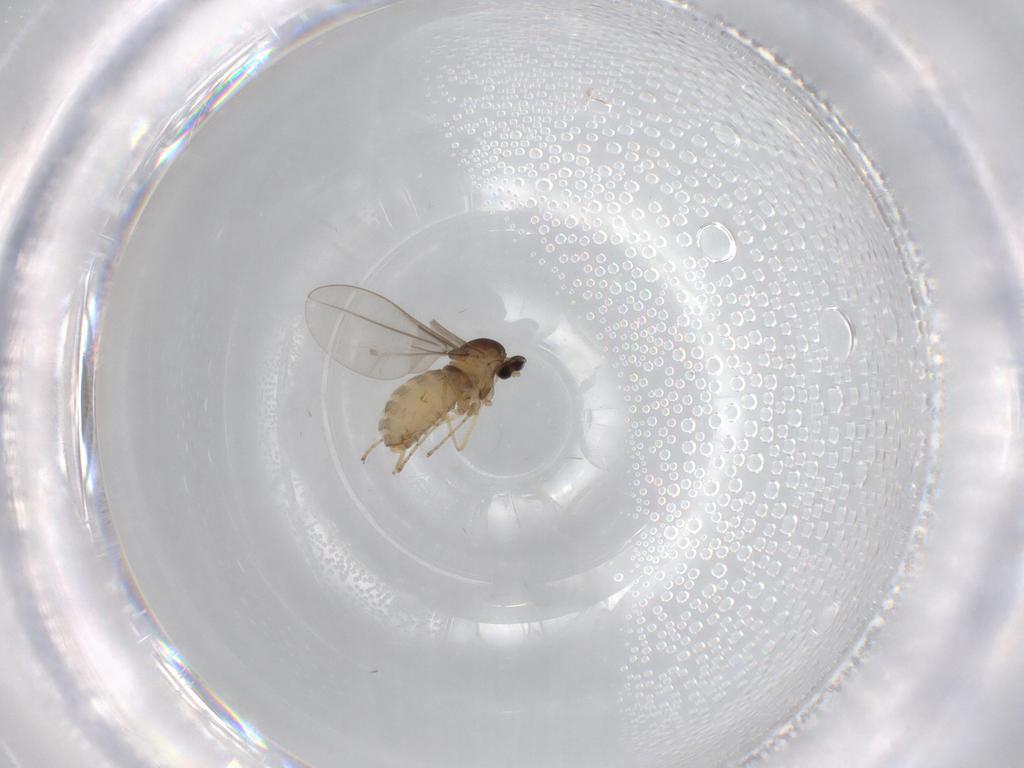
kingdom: Animalia
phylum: Arthropoda
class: Insecta
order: Diptera
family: Cecidomyiidae
